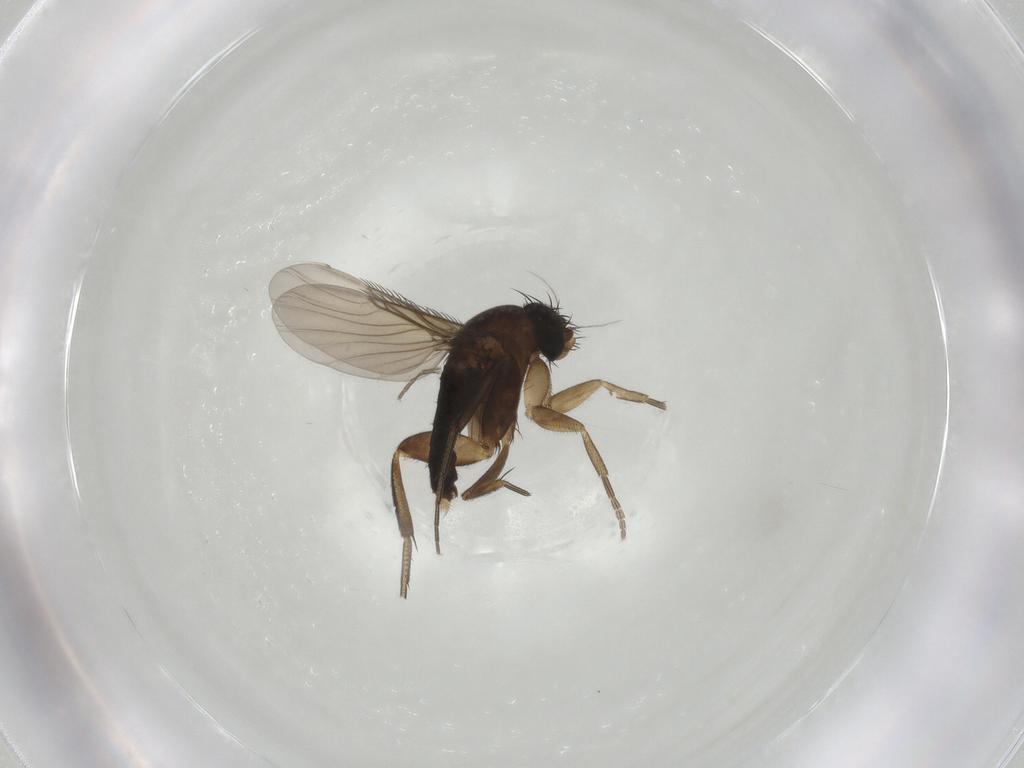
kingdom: Animalia
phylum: Arthropoda
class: Insecta
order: Diptera
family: Phoridae
